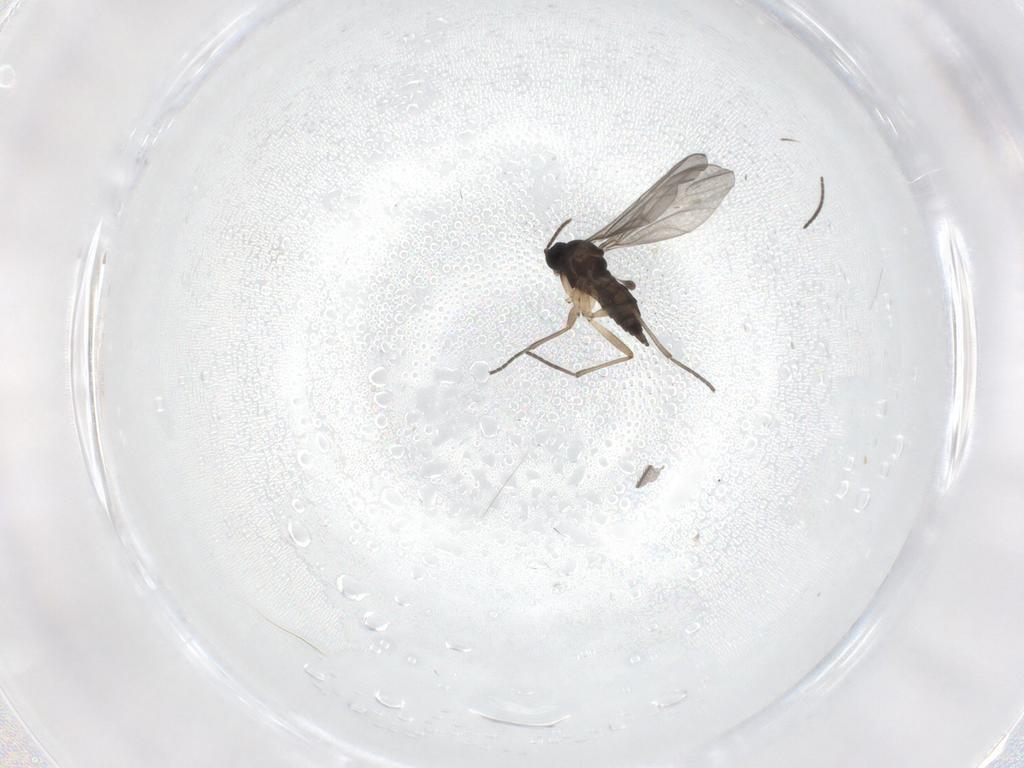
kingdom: Animalia
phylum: Arthropoda
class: Insecta
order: Diptera
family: Sciaridae
